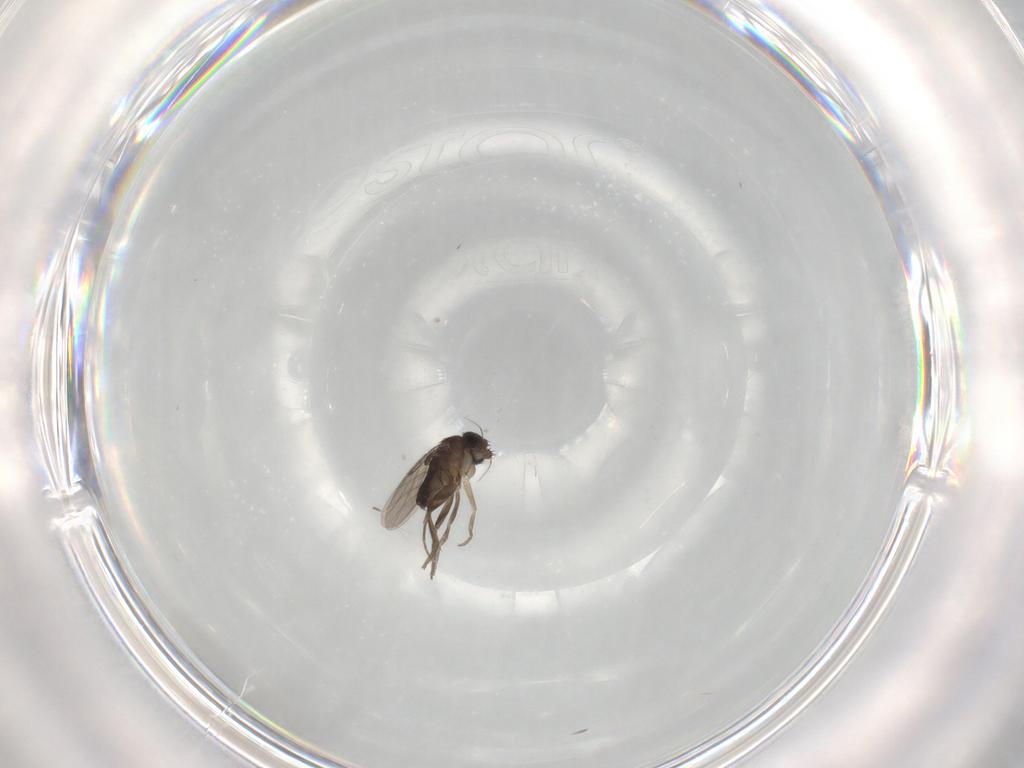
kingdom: Animalia
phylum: Arthropoda
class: Insecta
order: Diptera
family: Phoridae
